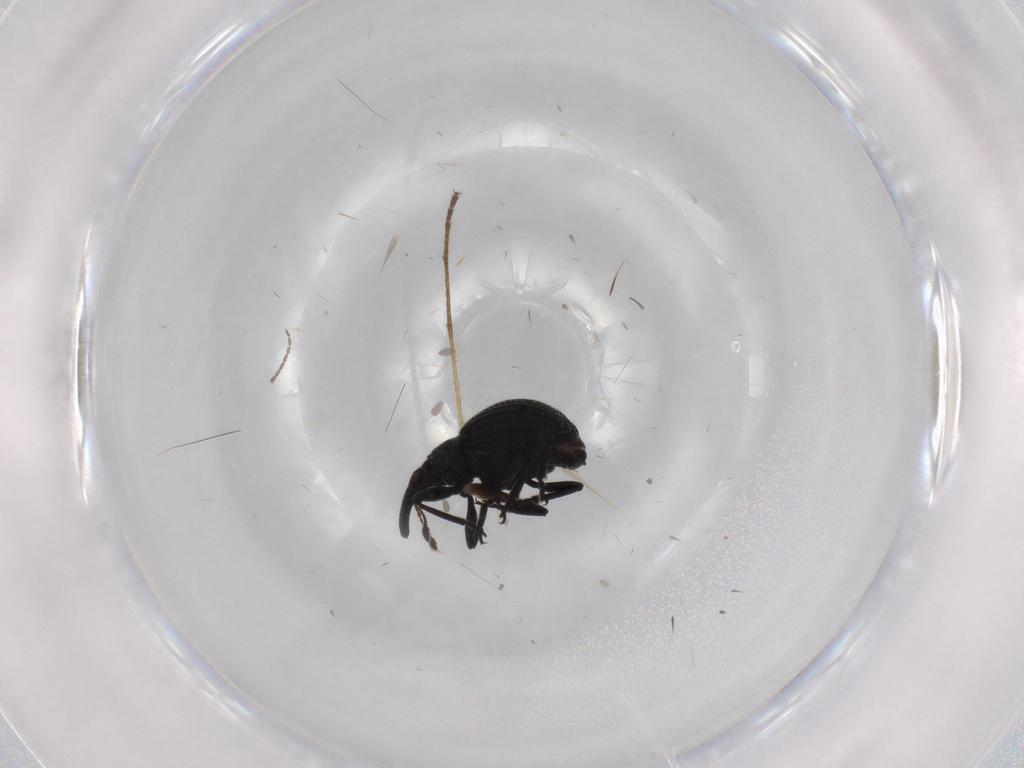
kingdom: Animalia
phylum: Arthropoda
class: Insecta
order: Coleoptera
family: Brentidae
